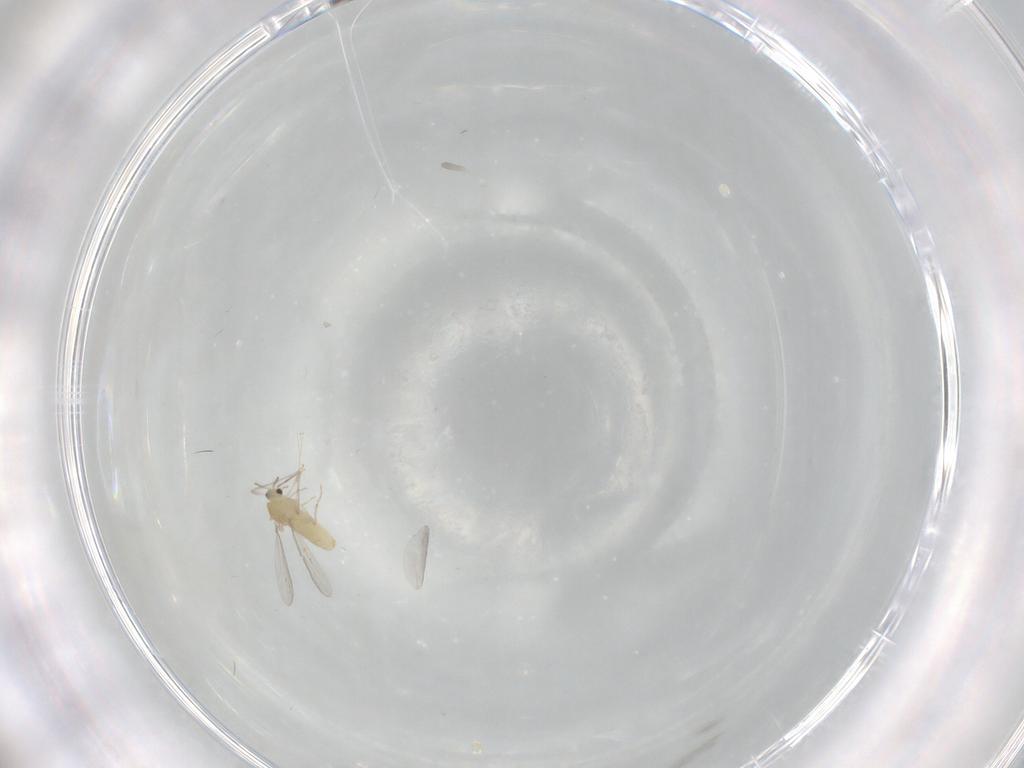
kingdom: Animalia
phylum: Arthropoda
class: Insecta
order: Diptera
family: Chironomidae
